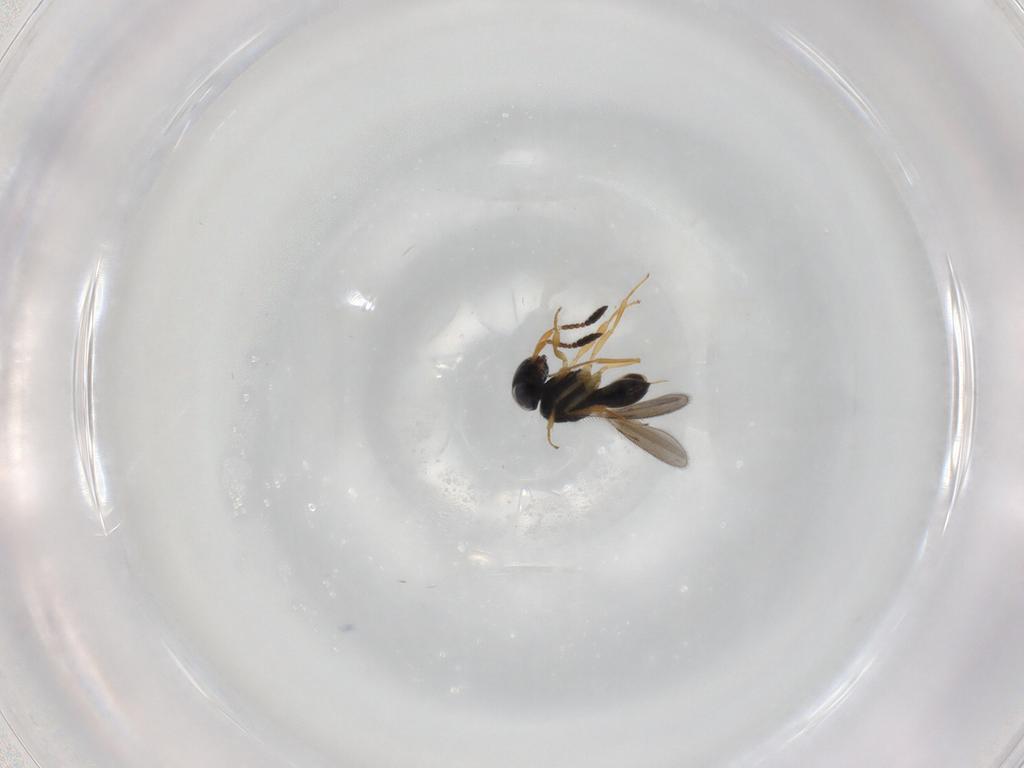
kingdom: Animalia
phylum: Arthropoda
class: Insecta
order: Hymenoptera
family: Scelionidae
